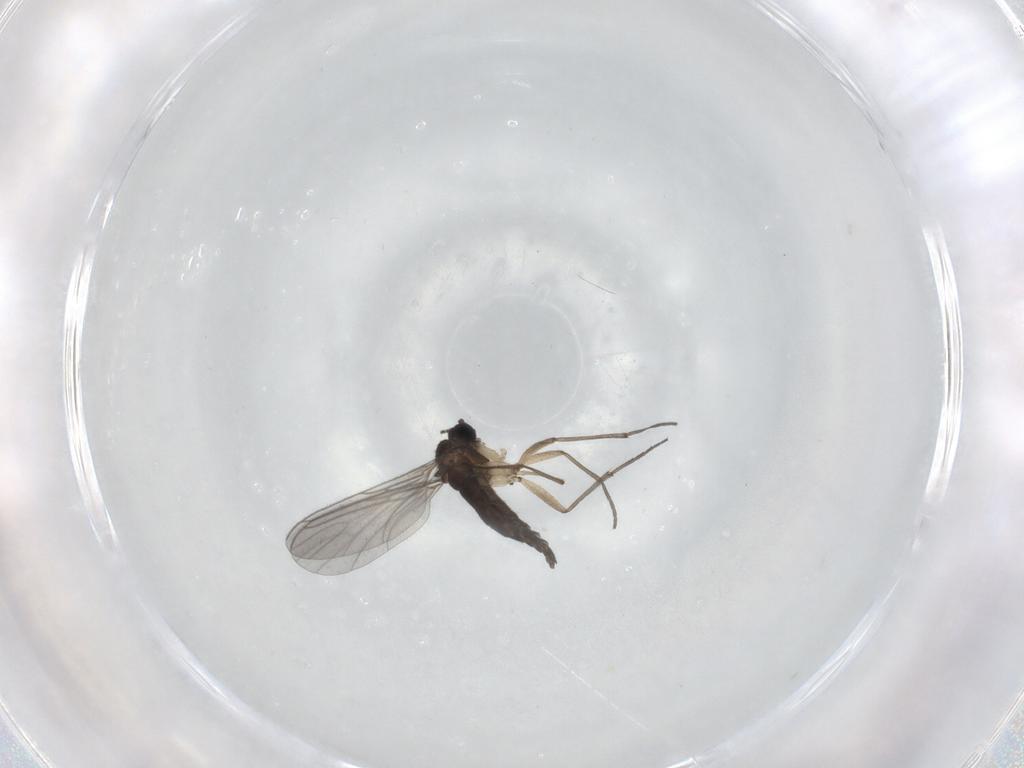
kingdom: Animalia
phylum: Arthropoda
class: Insecta
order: Diptera
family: Sciaridae
